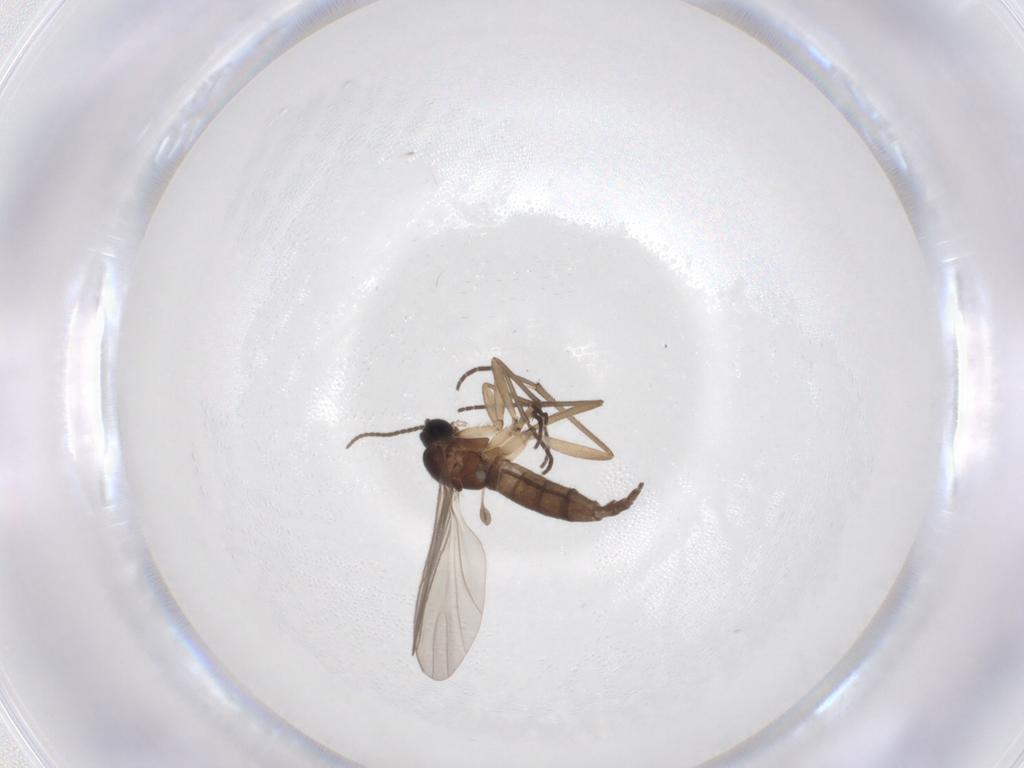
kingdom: Animalia
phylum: Arthropoda
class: Insecta
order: Diptera
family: Sciaridae
